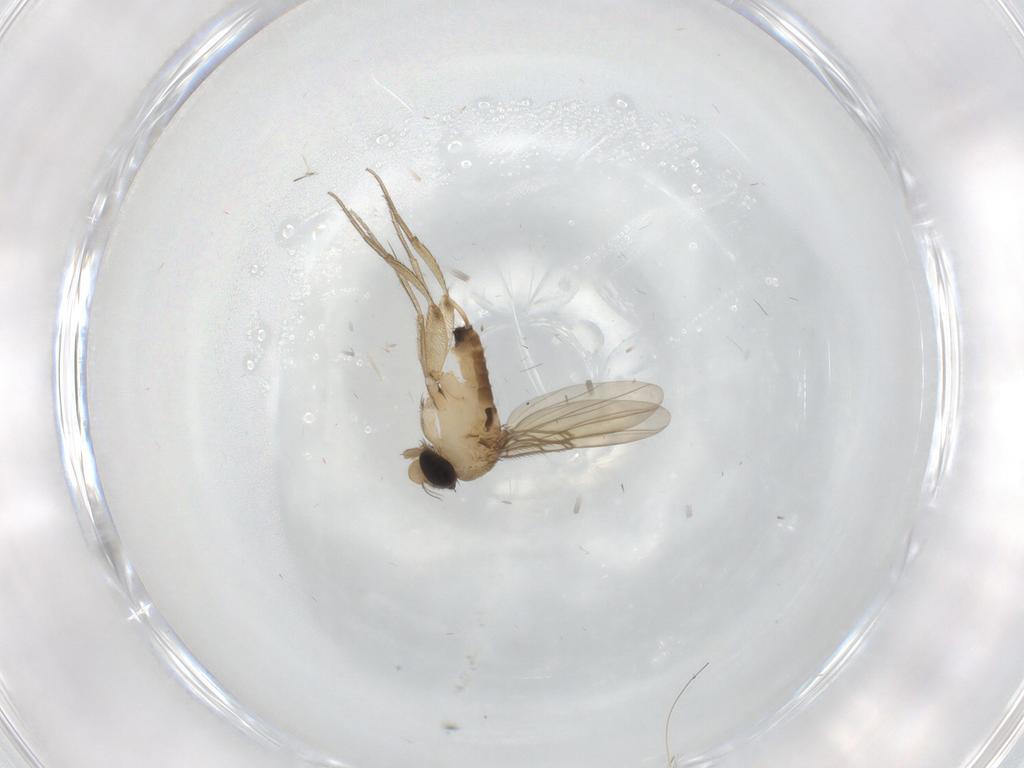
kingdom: Animalia
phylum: Arthropoda
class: Insecta
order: Diptera
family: Phoridae
